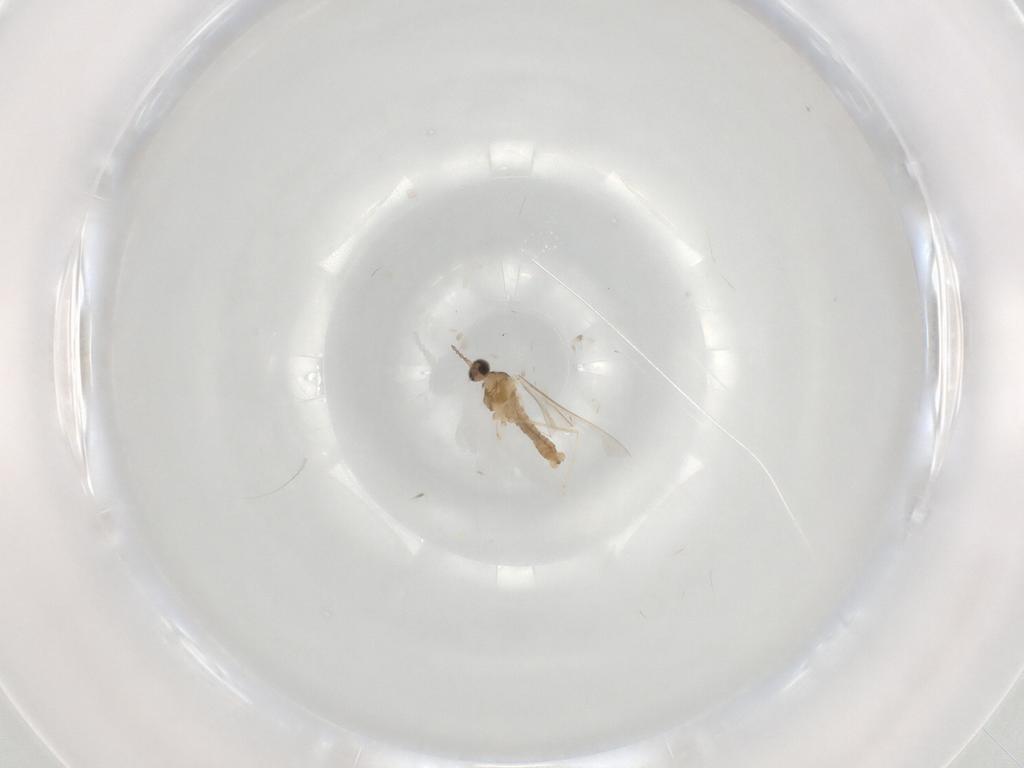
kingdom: Animalia
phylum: Arthropoda
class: Insecta
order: Diptera
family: Cecidomyiidae
